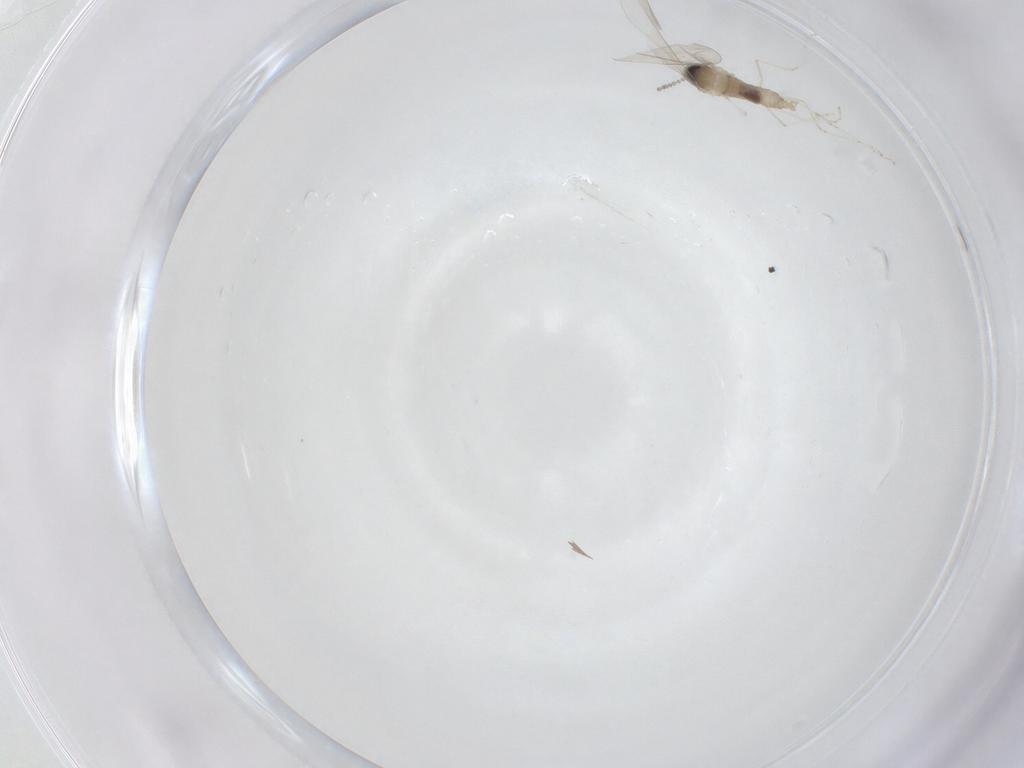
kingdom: Animalia
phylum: Arthropoda
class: Insecta
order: Diptera
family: Cecidomyiidae
